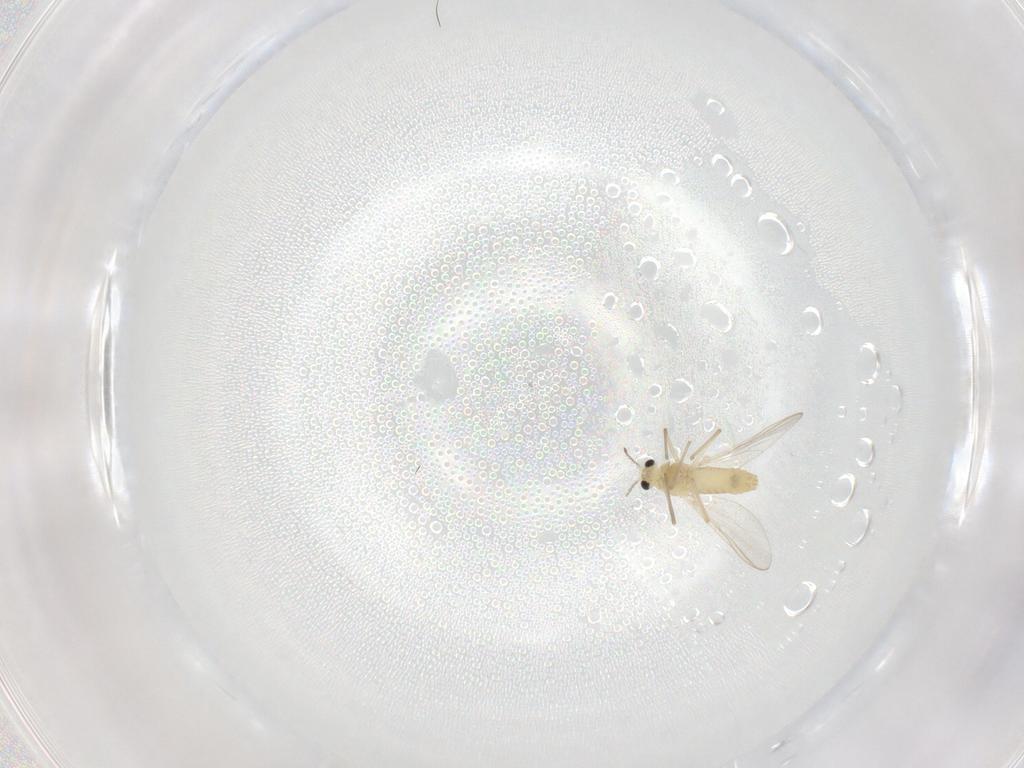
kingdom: Animalia
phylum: Arthropoda
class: Insecta
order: Diptera
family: Chironomidae
